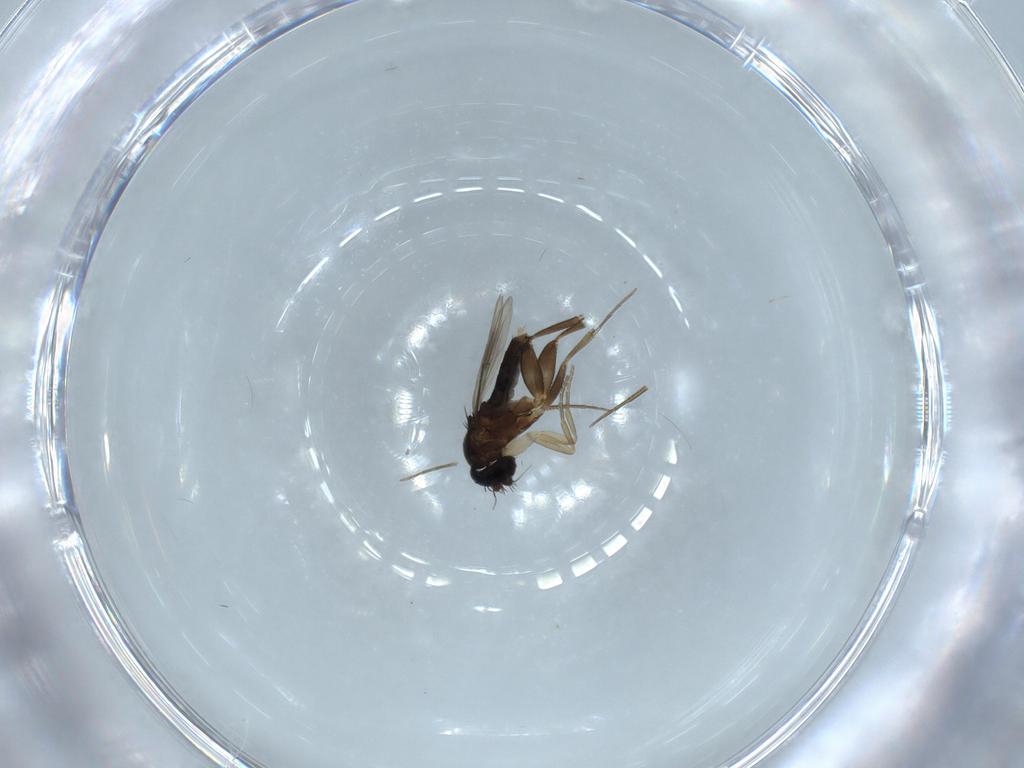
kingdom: Animalia
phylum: Arthropoda
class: Insecta
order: Diptera
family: Phoridae
